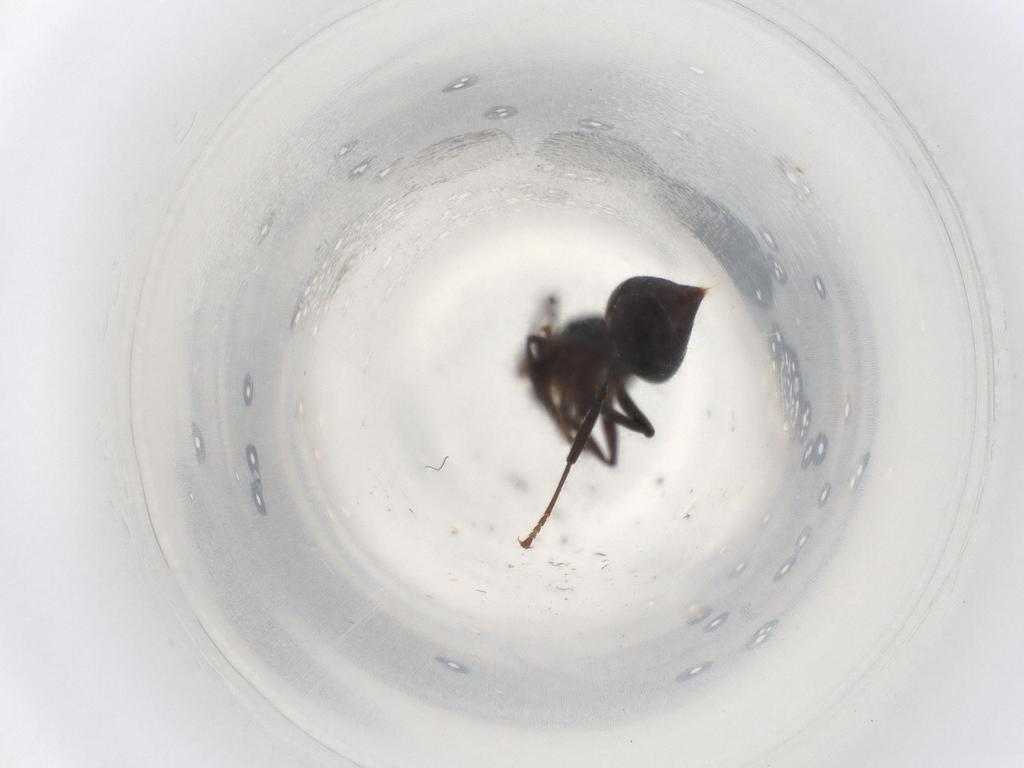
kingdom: Animalia
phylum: Arthropoda
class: Insecta
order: Hymenoptera
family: Formicidae
